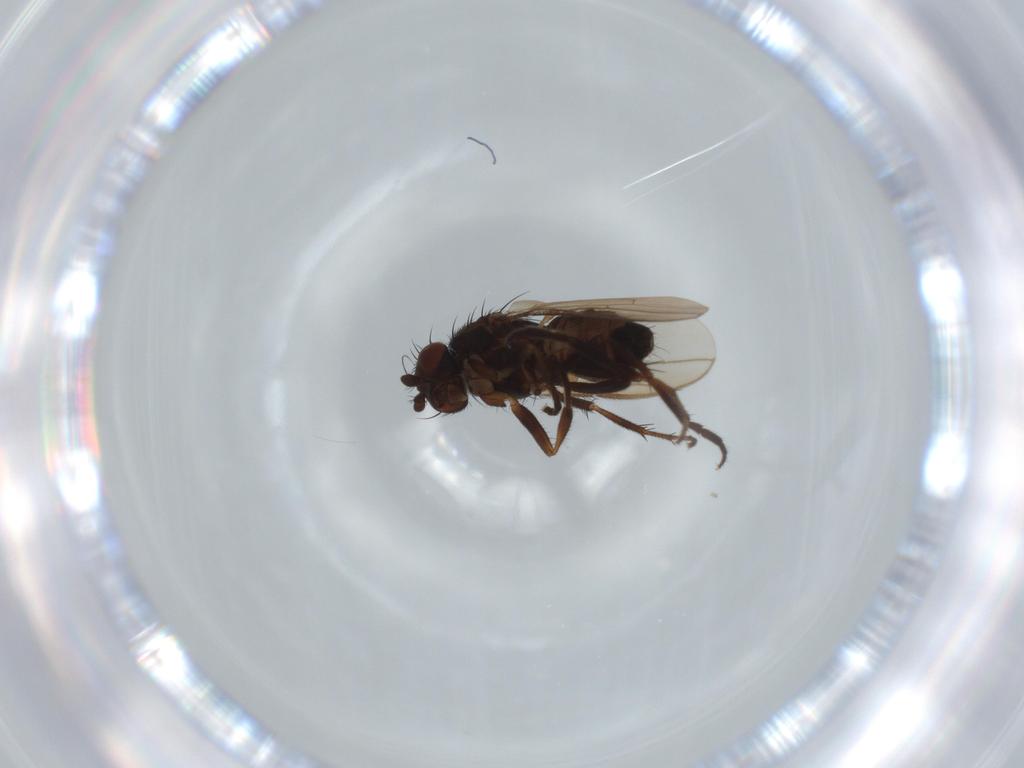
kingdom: Animalia
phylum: Arthropoda
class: Insecta
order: Diptera
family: Sphaeroceridae
